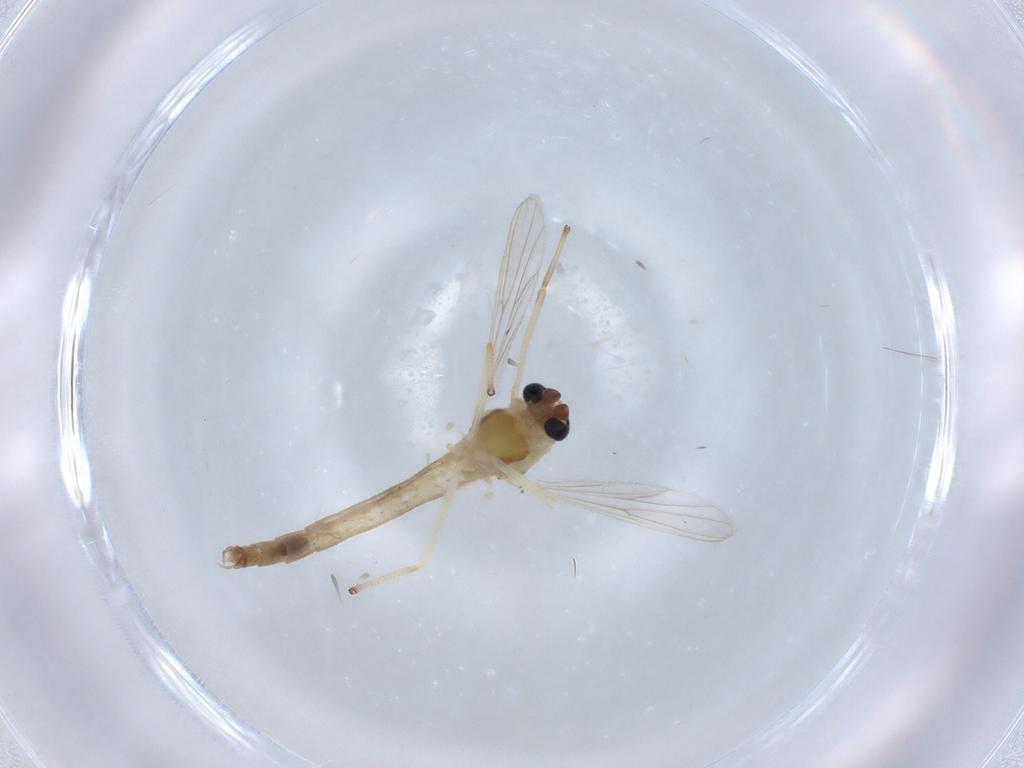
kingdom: Animalia
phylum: Arthropoda
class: Insecta
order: Diptera
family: Chironomidae
